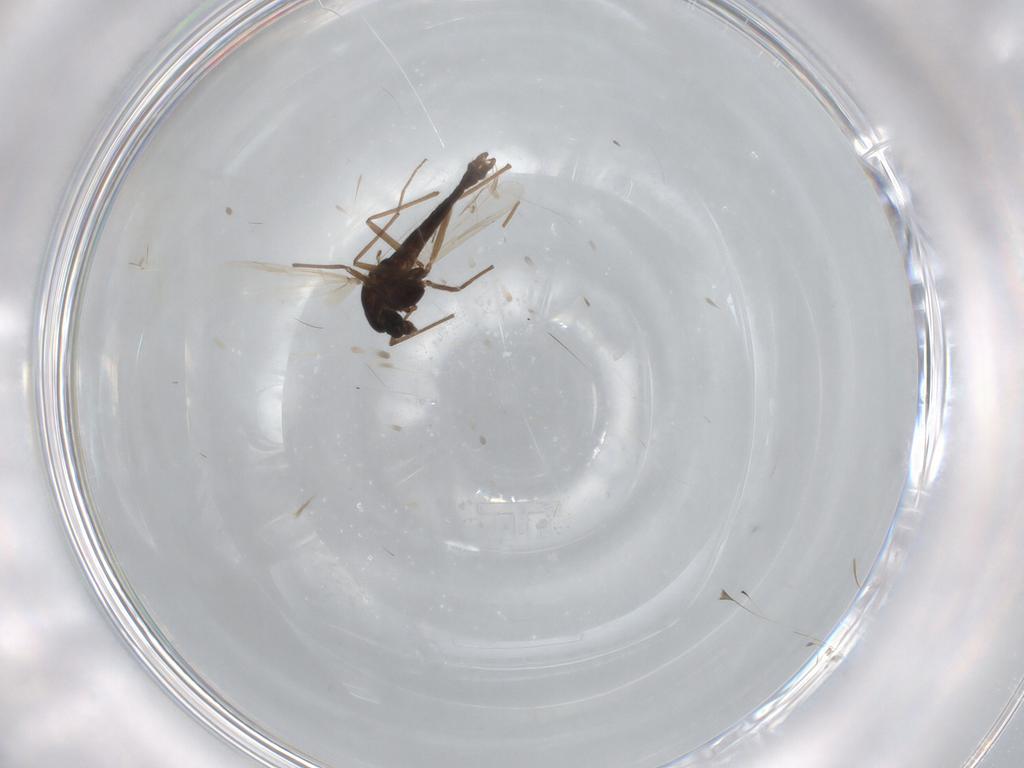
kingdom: Animalia
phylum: Arthropoda
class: Insecta
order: Diptera
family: Chironomidae
